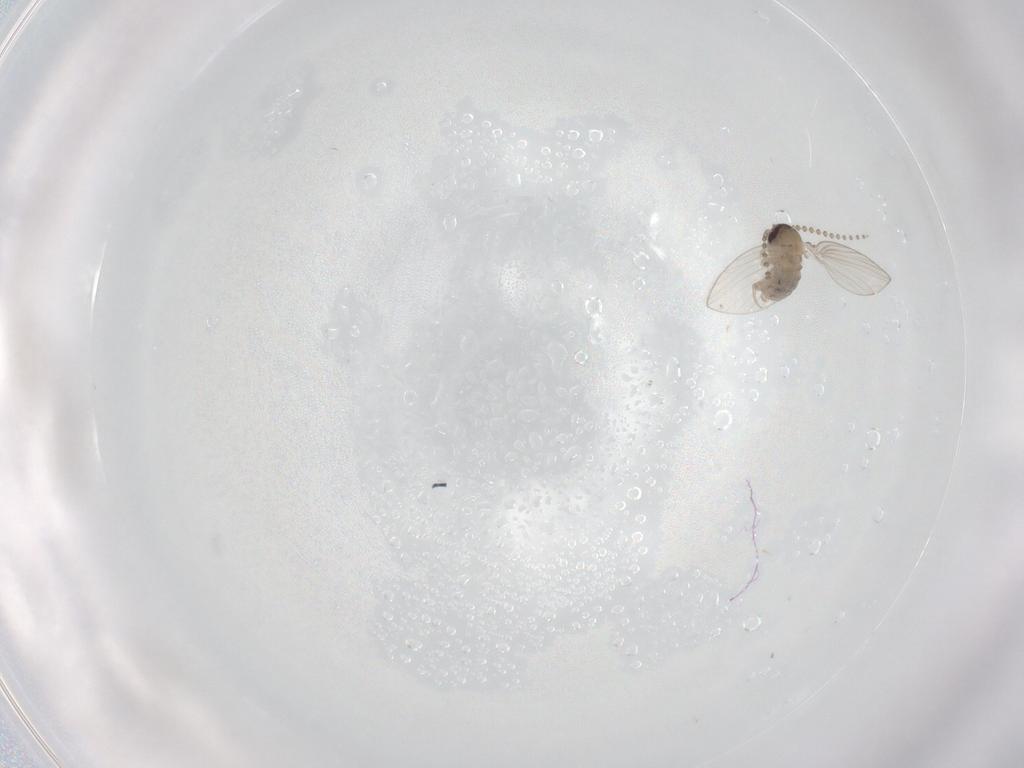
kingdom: Animalia
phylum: Arthropoda
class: Insecta
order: Diptera
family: Psychodidae
